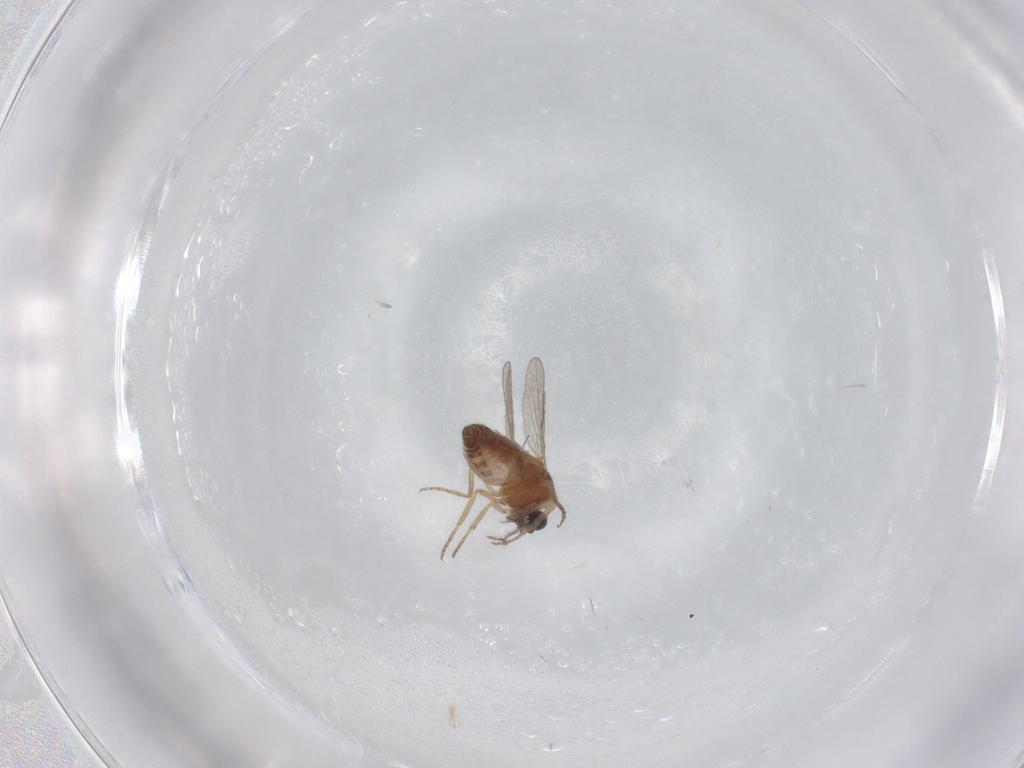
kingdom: Animalia
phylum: Arthropoda
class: Insecta
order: Diptera
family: Ceratopogonidae
